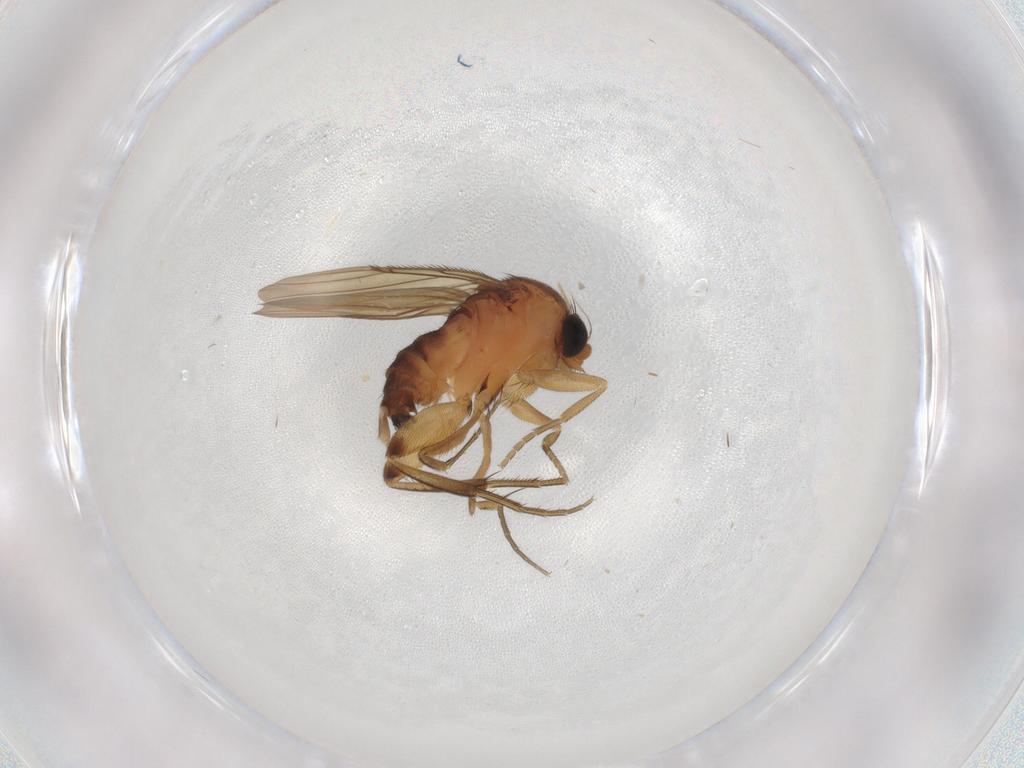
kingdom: Animalia
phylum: Arthropoda
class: Insecta
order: Diptera
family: Phoridae
